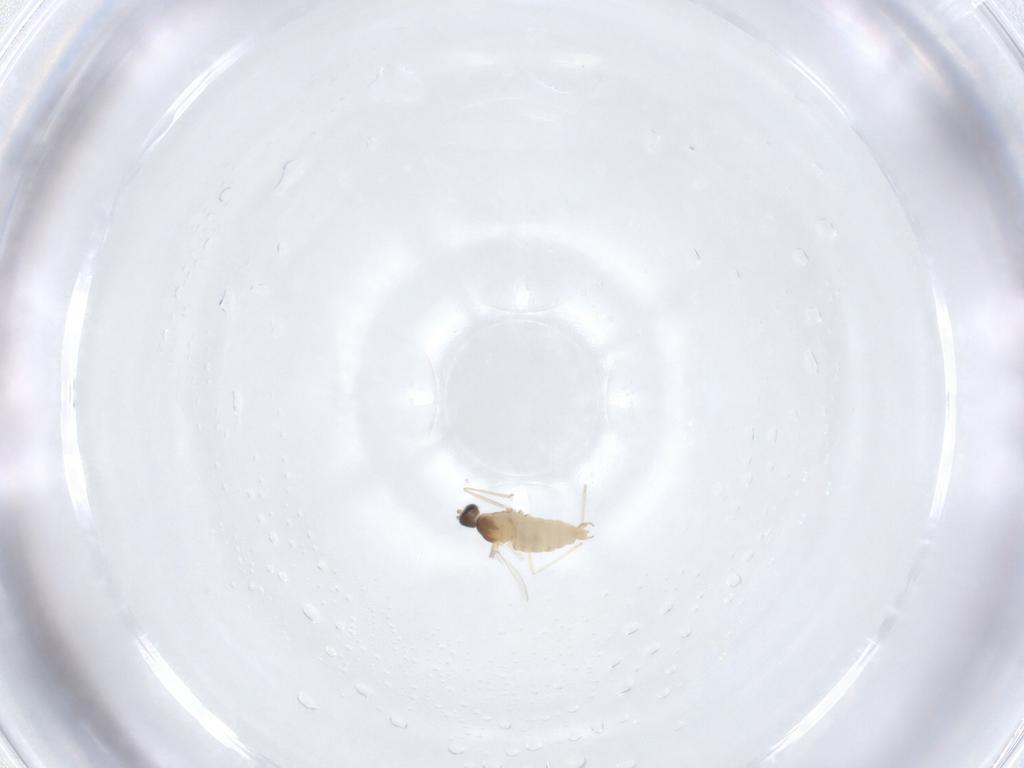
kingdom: Animalia
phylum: Arthropoda
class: Insecta
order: Diptera
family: Cecidomyiidae
